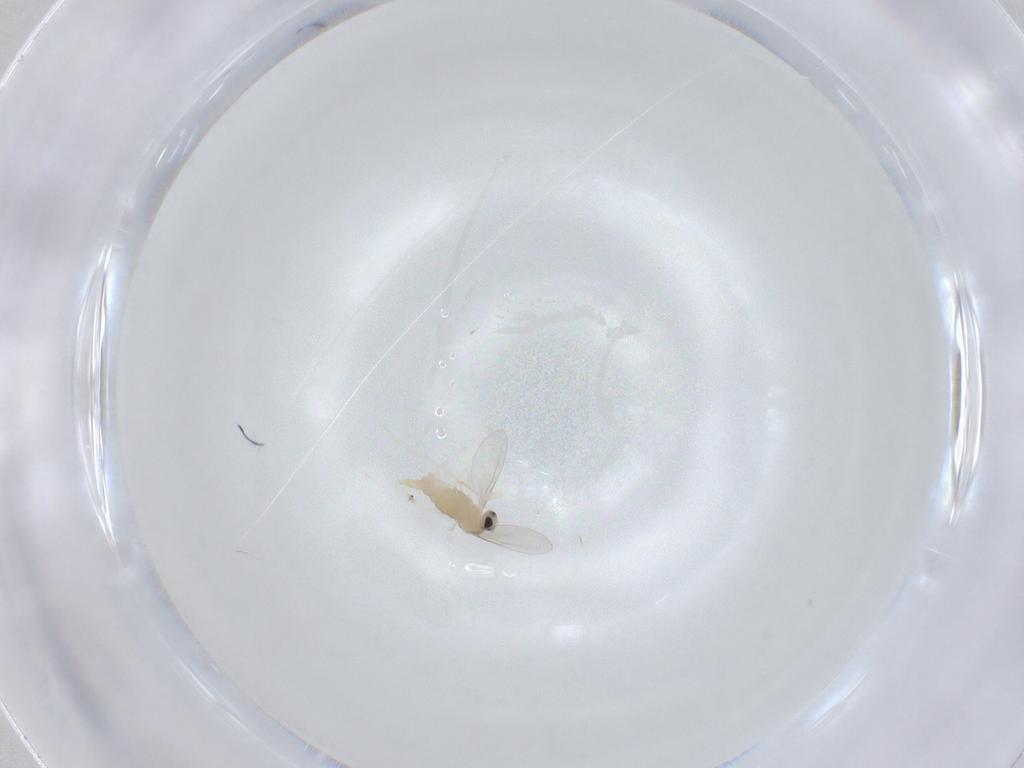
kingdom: Animalia
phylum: Arthropoda
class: Insecta
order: Diptera
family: Cecidomyiidae
